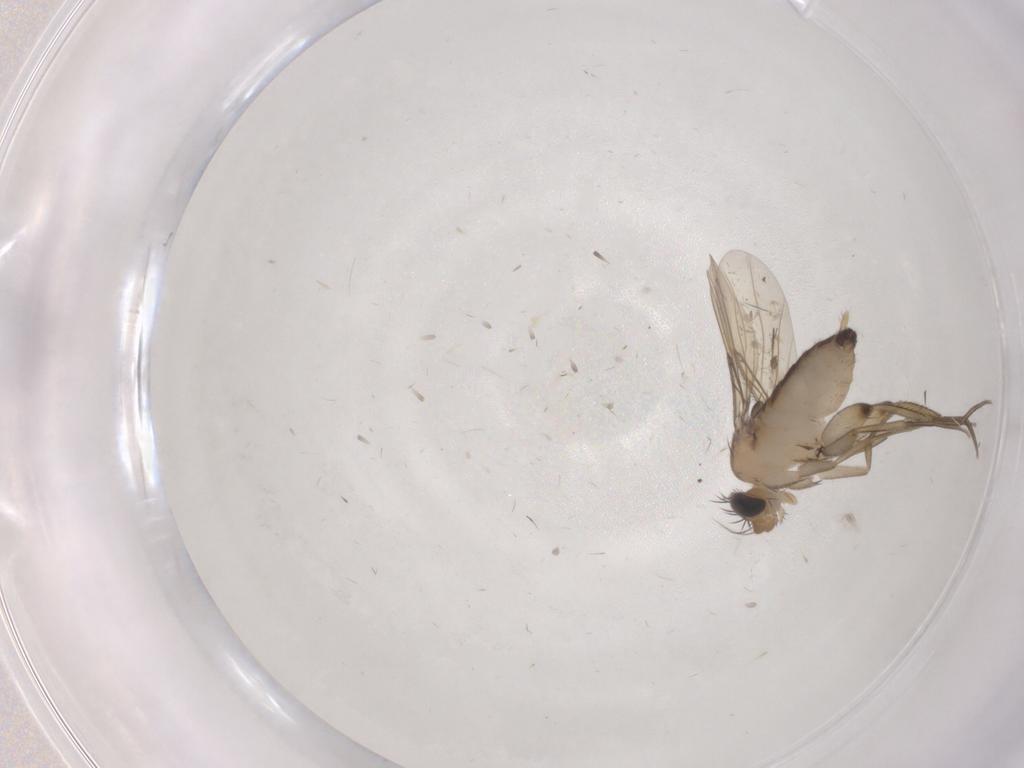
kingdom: Animalia
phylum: Arthropoda
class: Insecta
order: Diptera
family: Phoridae
